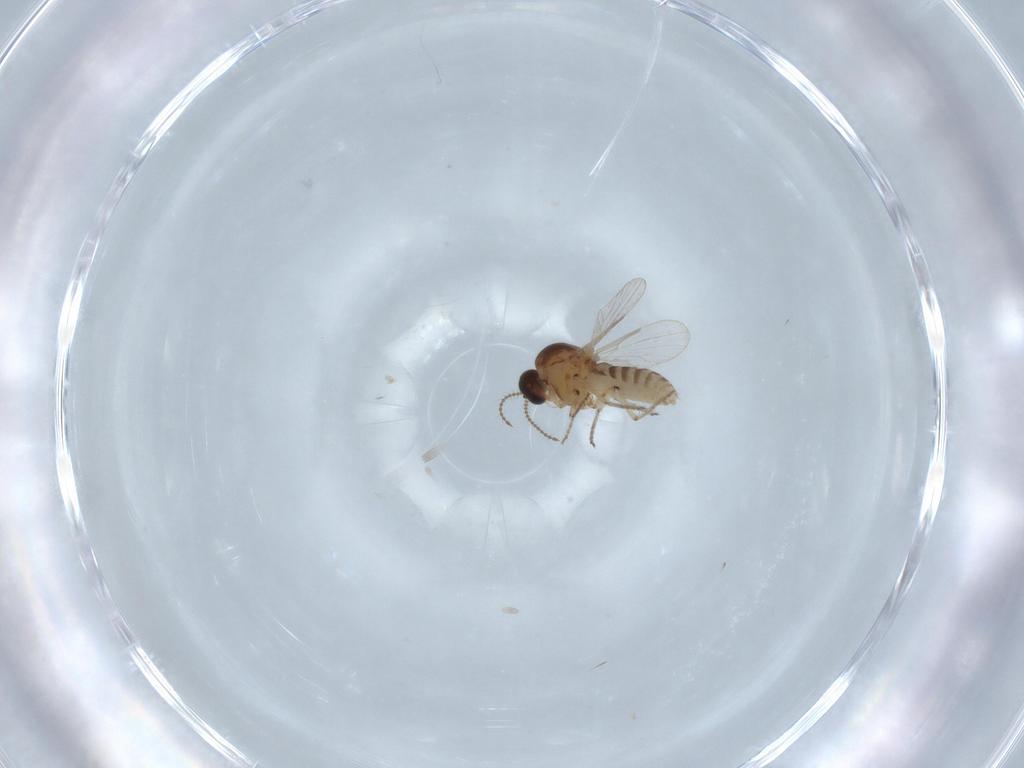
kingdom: Animalia
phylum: Arthropoda
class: Insecta
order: Diptera
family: Ceratopogonidae
